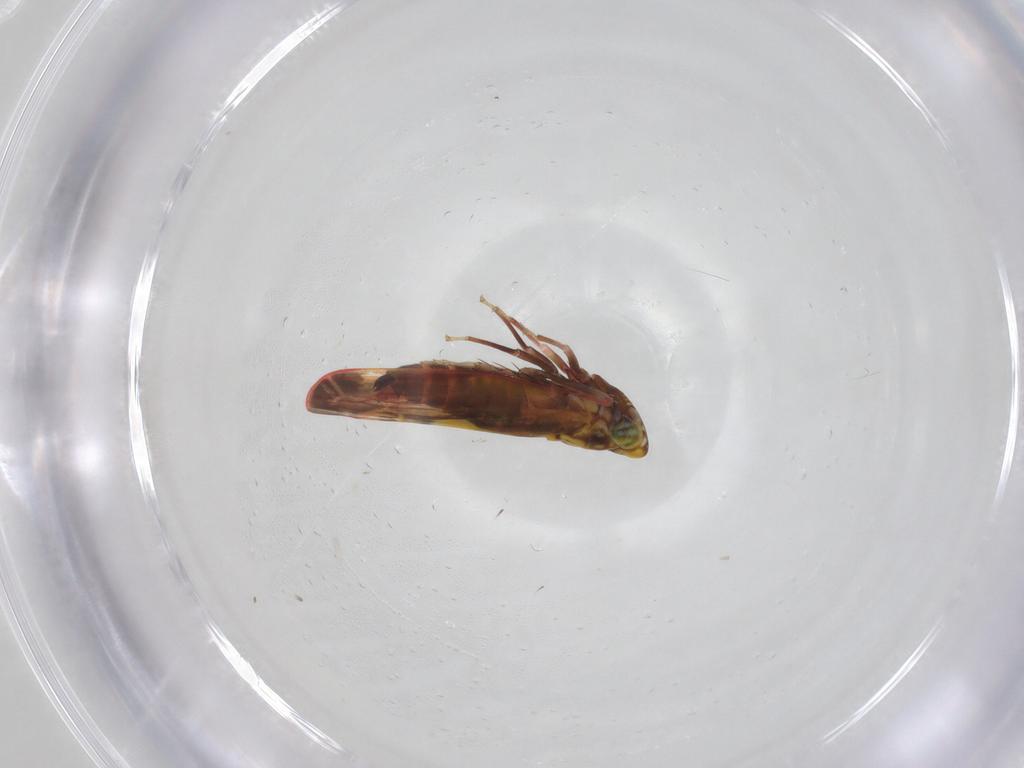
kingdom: Animalia
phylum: Arthropoda
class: Insecta
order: Hemiptera
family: Cicadellidae
